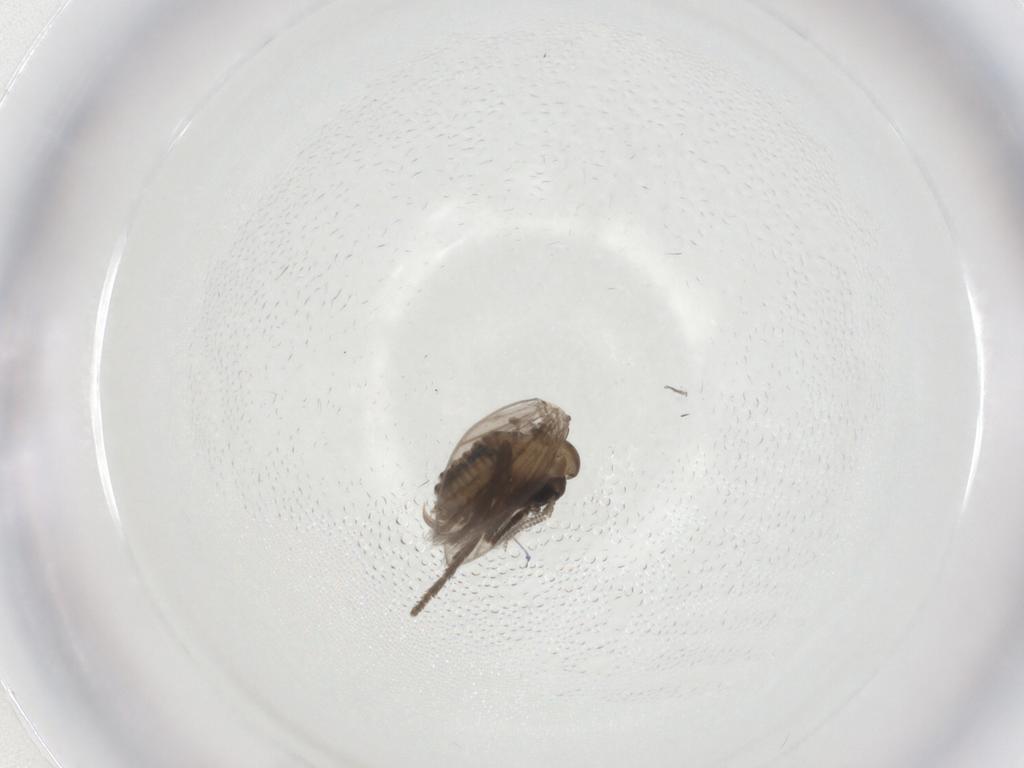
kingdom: Animalia
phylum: Arthropoda
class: Insecta
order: Diptera
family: Psychodidae
